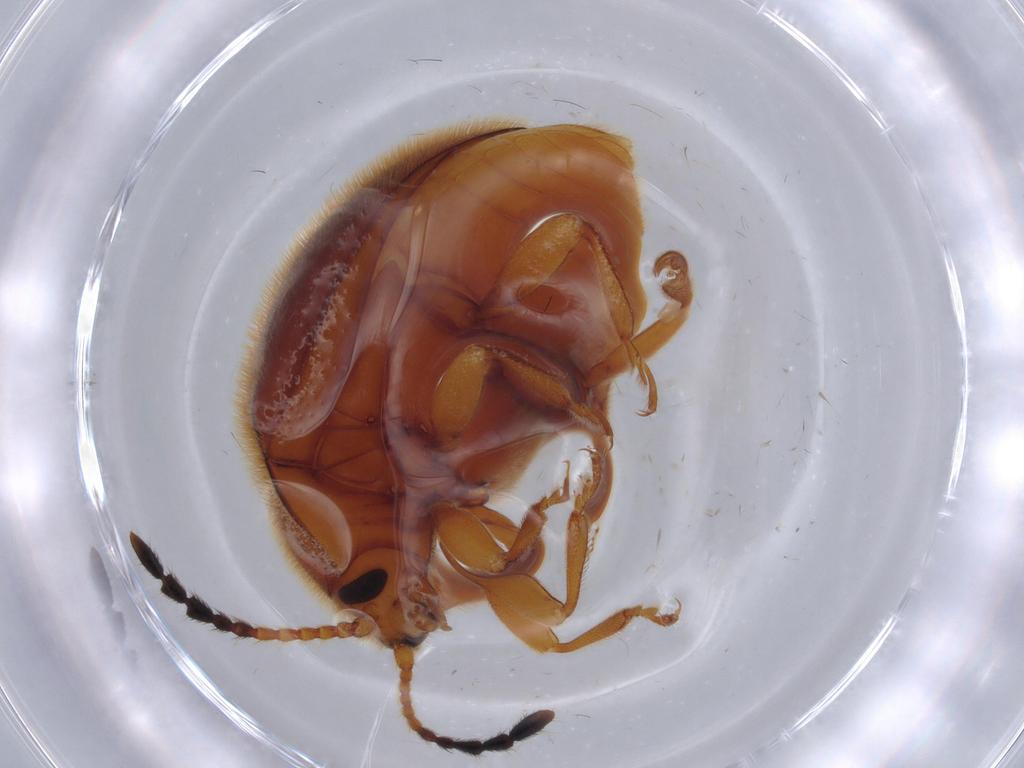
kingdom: Animalia
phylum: Arthropoda
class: Insecta
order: Coleoptera
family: Endomychidae
